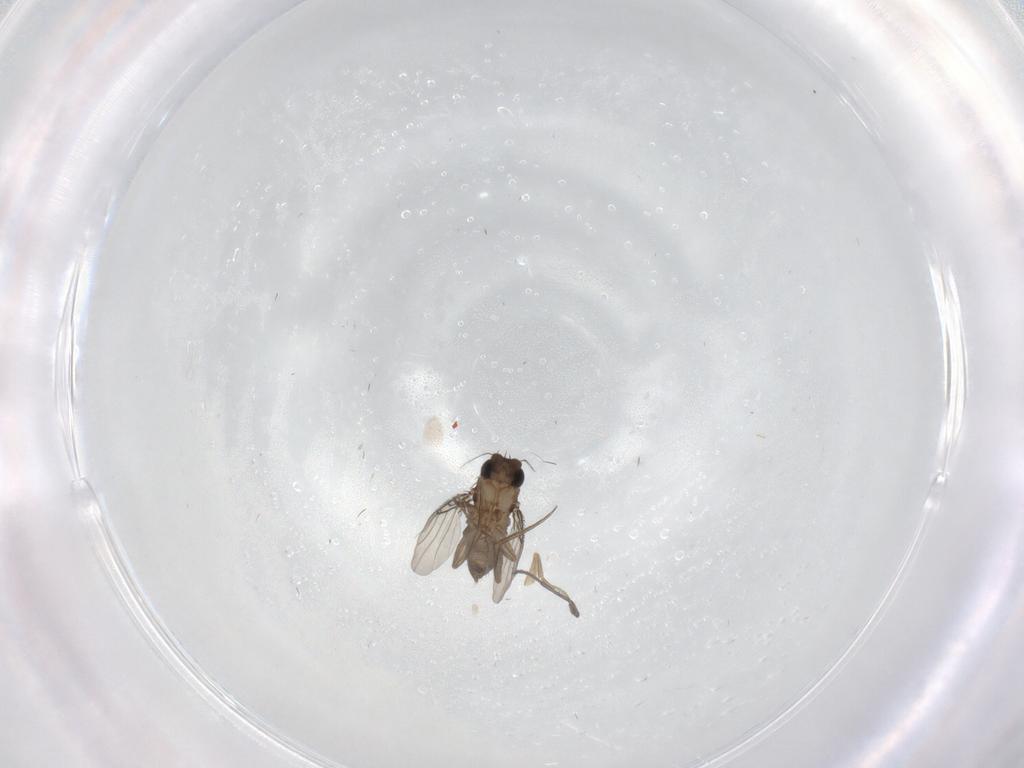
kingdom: Animalia
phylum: Arthropoda
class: Insecta
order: Diptera
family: Phoridae
